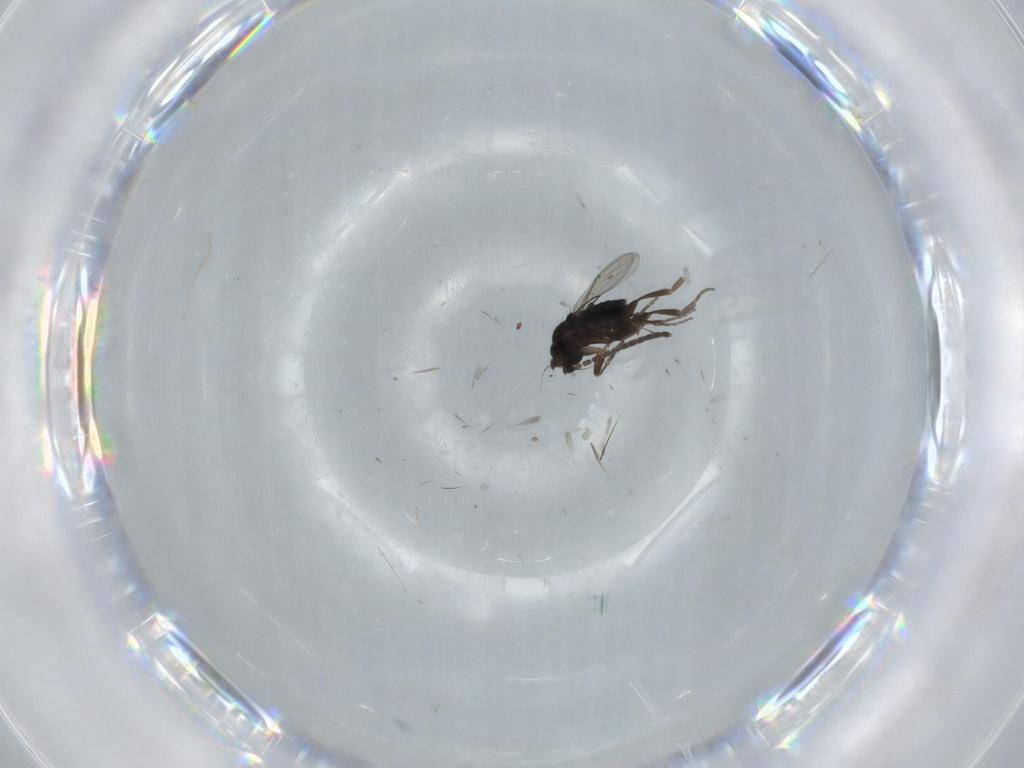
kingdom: Animalia
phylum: Arthropoda
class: Insecta
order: Diptera
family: Phoridae
